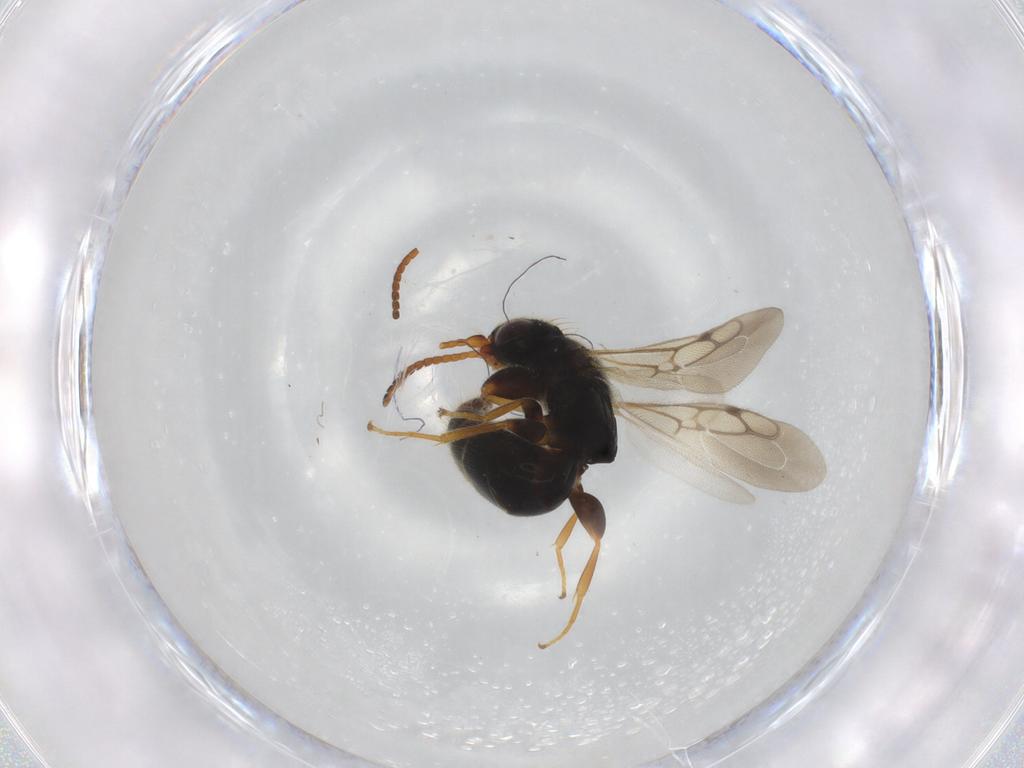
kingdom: Animalia
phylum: Arthropoda
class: Insecta
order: Hymenoptera
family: Bethylidae
